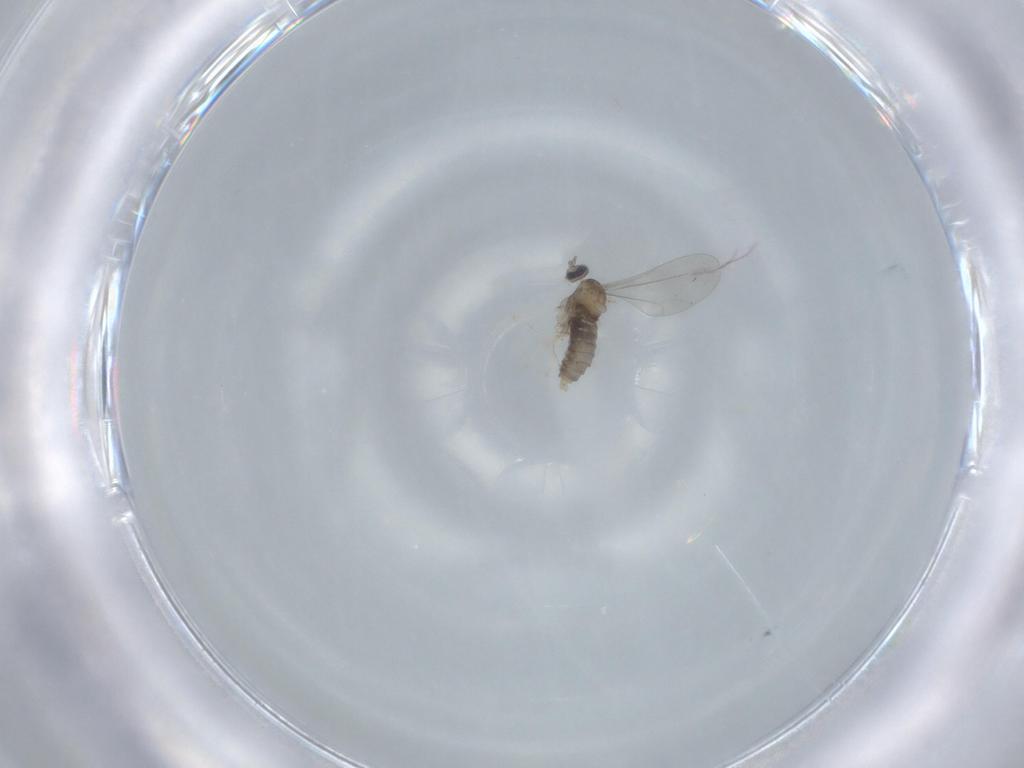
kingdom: Animalia
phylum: Arthropoda
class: Insecta
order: Diptera
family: Cecidomyiidae
